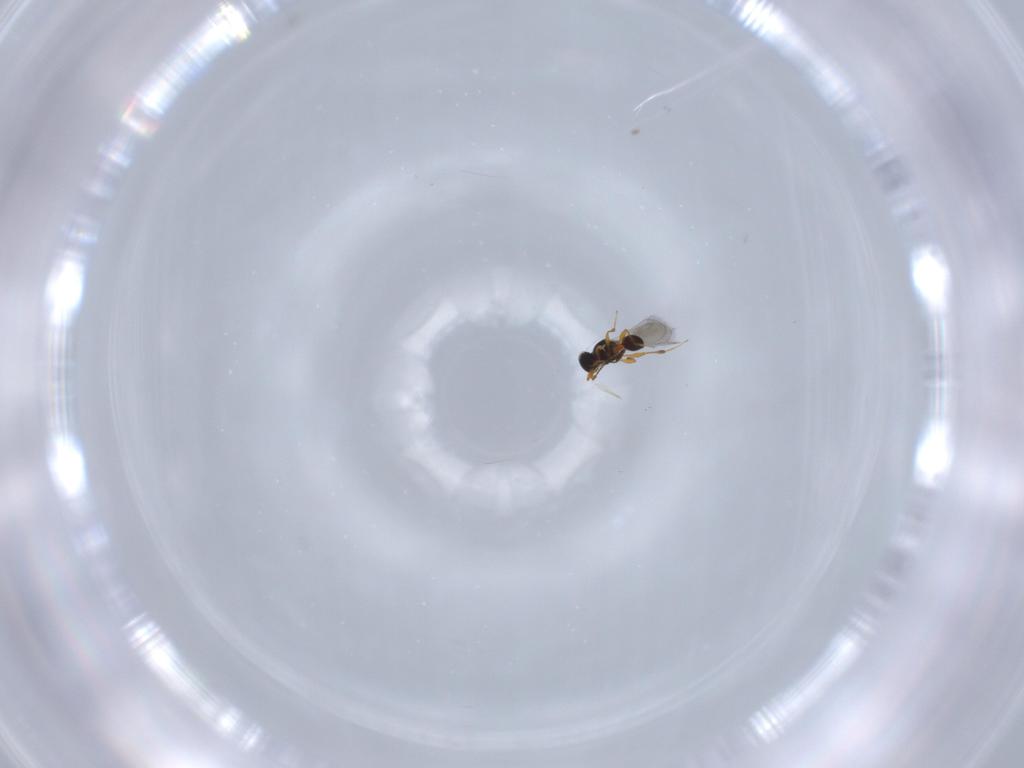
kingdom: Animalia
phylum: Arthropoda
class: Insecta
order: Hymenoptera
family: Platygastridae
